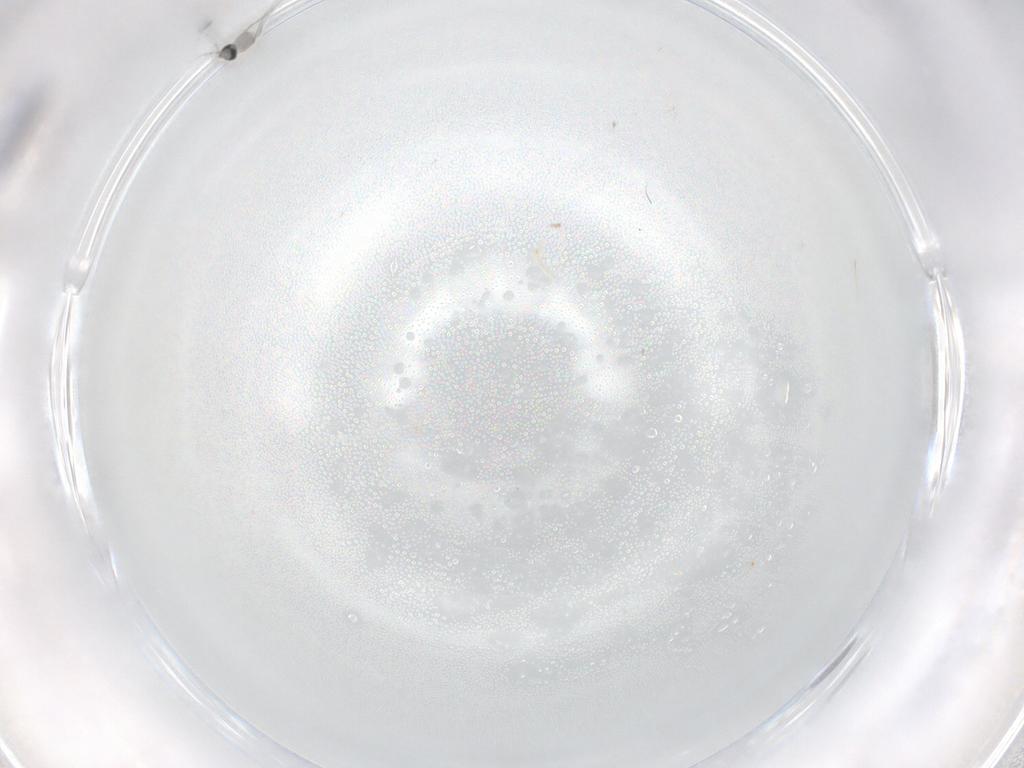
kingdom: Animalia
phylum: Arthropoda
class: Insecta
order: Diptera
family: Cecidomyiidae
